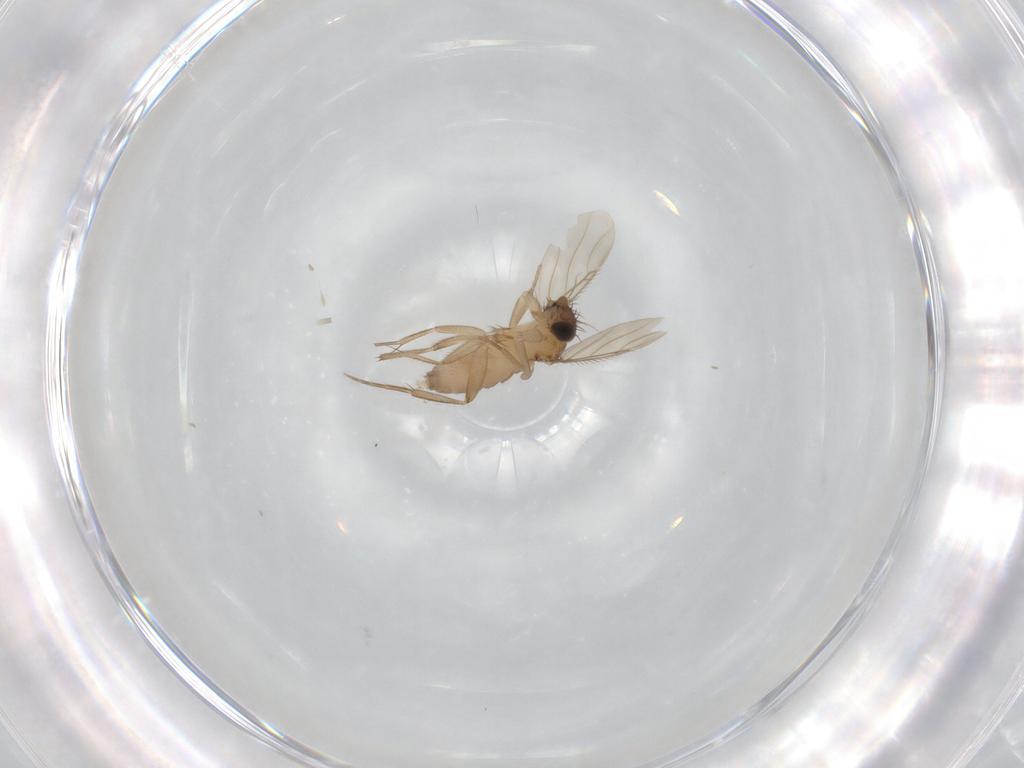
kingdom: Animalia
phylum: Arthropoda
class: Insecta
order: Diptera
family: Phoridae
